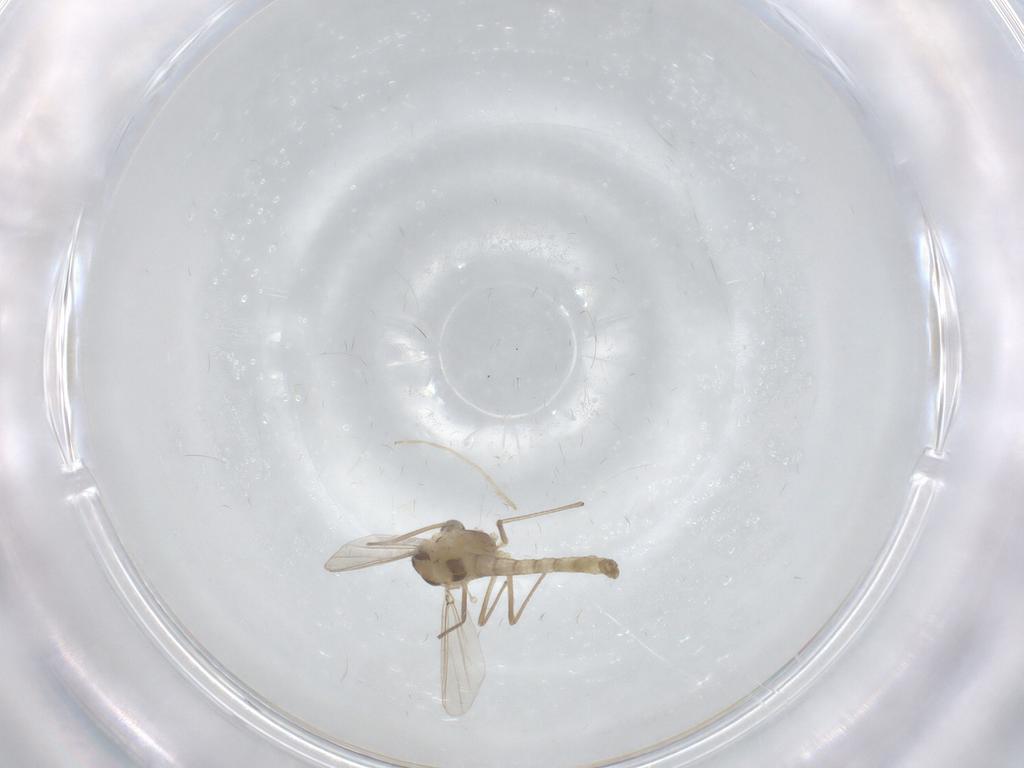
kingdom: Animalia
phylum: Arthropoda
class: Insecta
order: Diptera
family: Chironomidae
